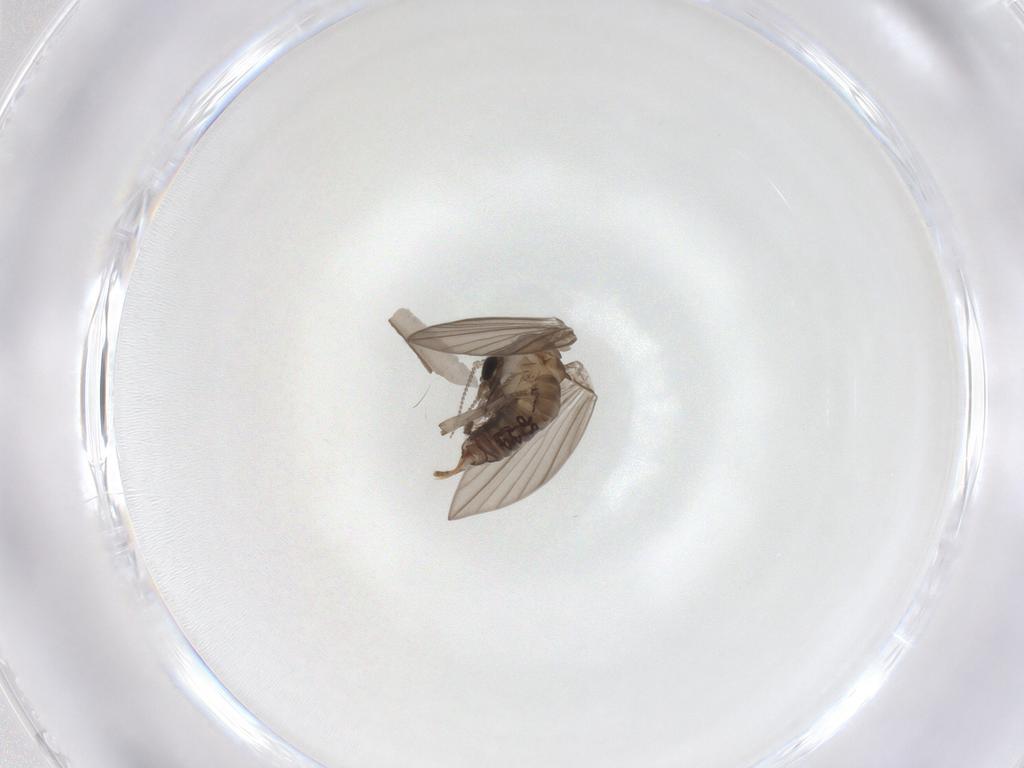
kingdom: Animalia
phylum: Arthropoda
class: Insecta
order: Diptera
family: Psychodidae
